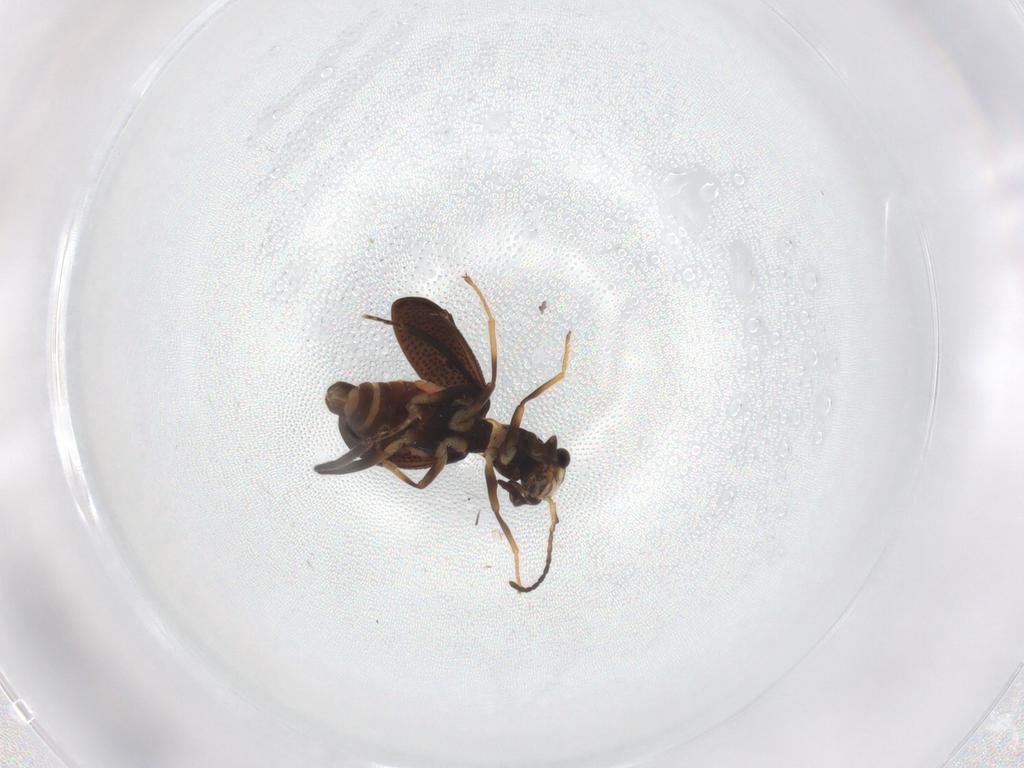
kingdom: Animalia
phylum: Arthropoda
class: Insecta
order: Coleoptera
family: Melyridae
